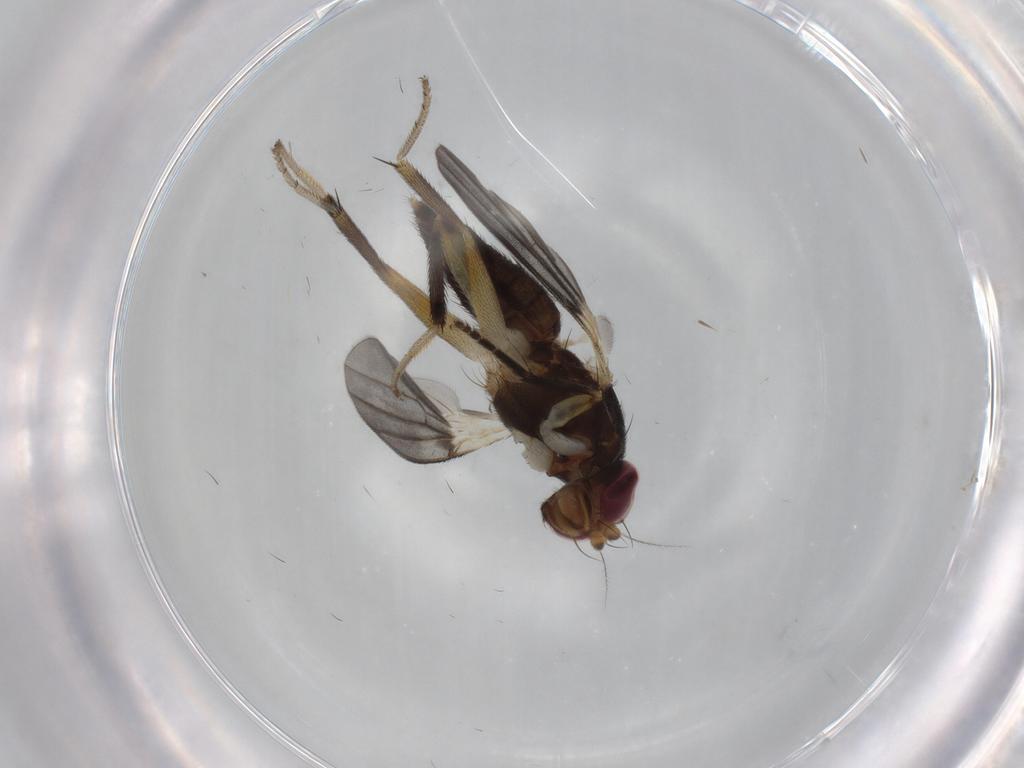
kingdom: Animalia
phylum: Arthropoda
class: Insecta
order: Diptera
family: Clusiidae
